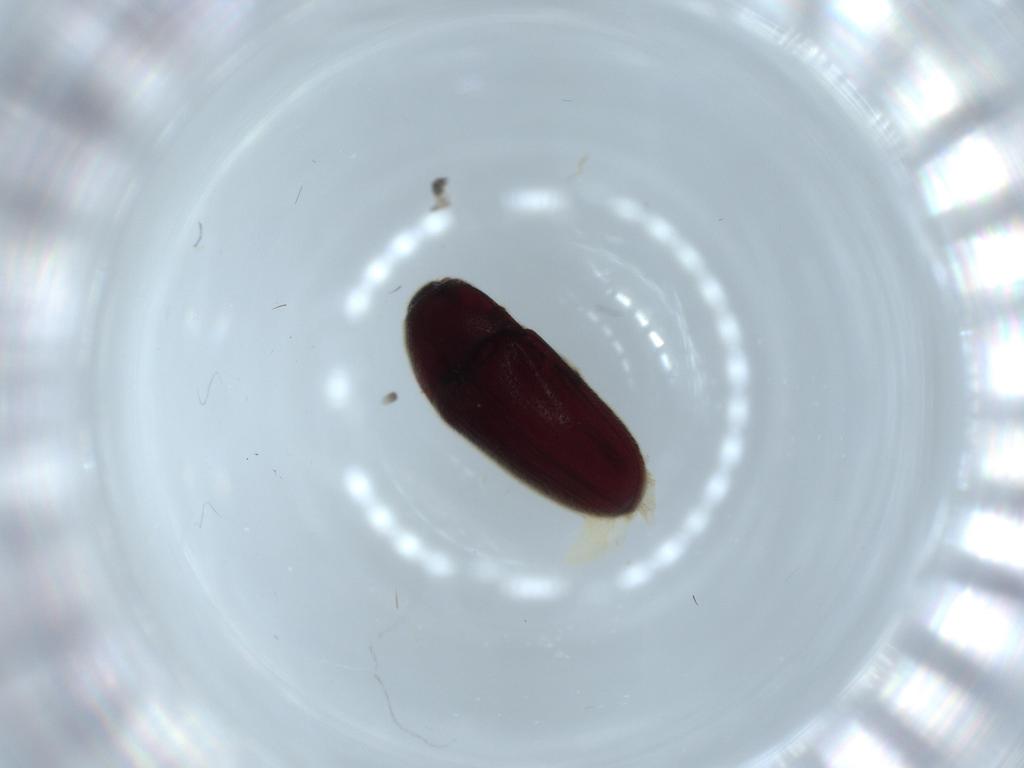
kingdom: Animalia
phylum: Arthropoda
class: Insecta
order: Coleoptera
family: Throscidae
